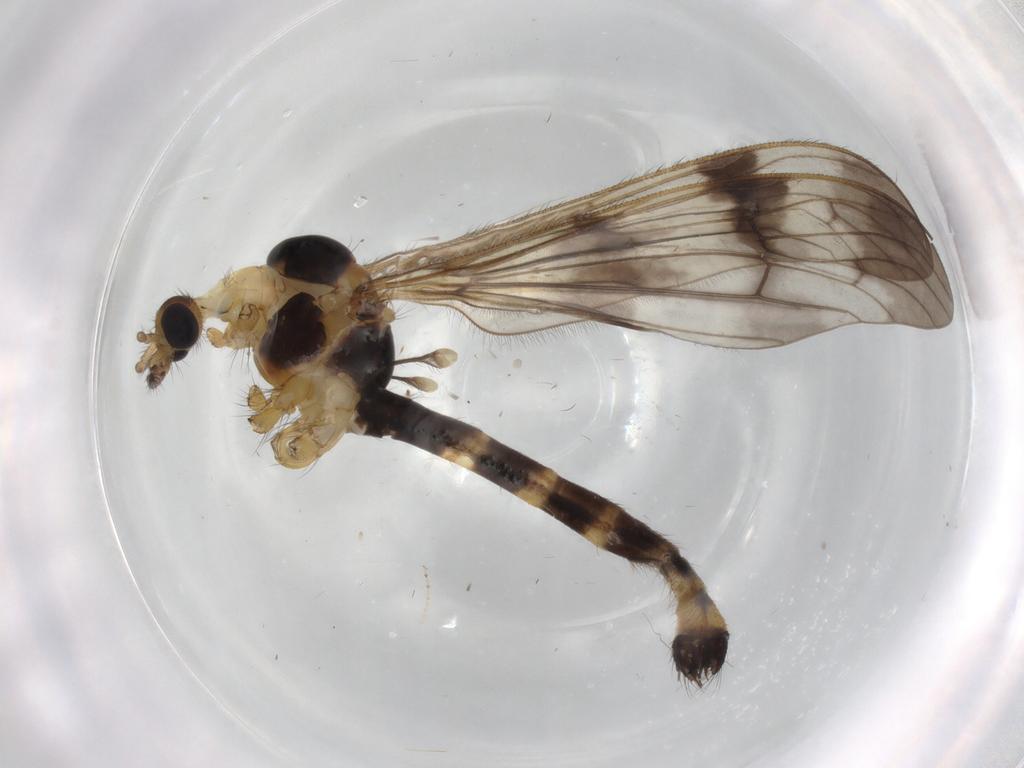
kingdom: Animalia
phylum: Arthropoda
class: Insecta
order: Diptera
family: Limoniidae
